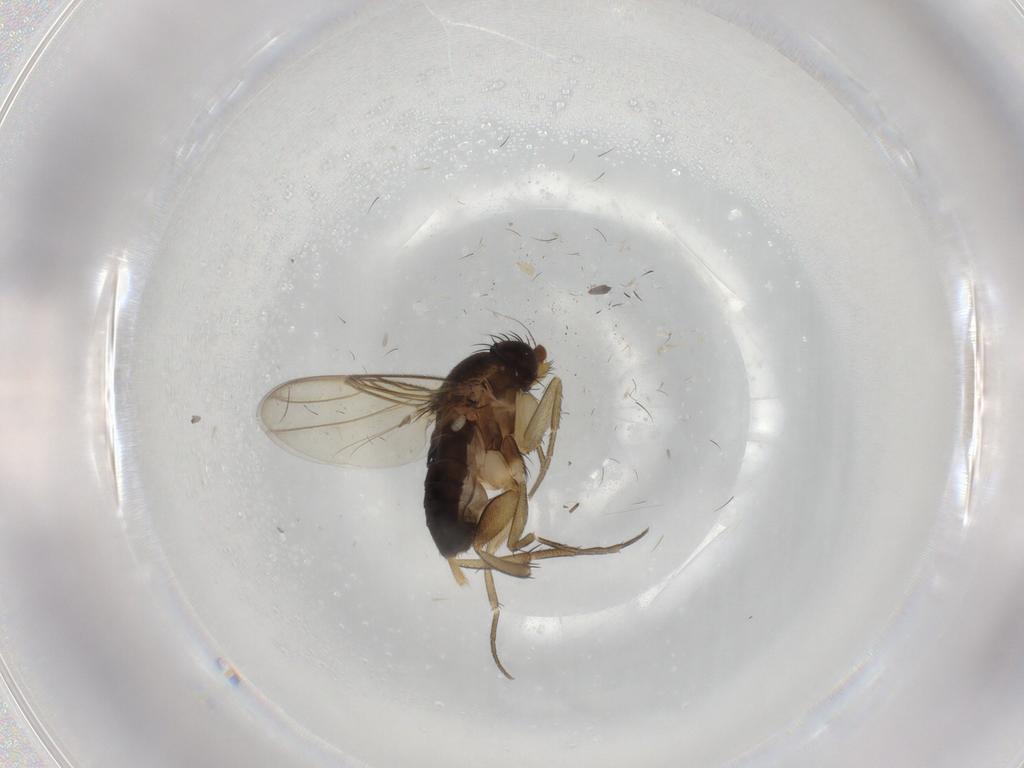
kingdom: Animalia
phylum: Arthropoda
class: Insecta
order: Diptera
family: Phoridae
